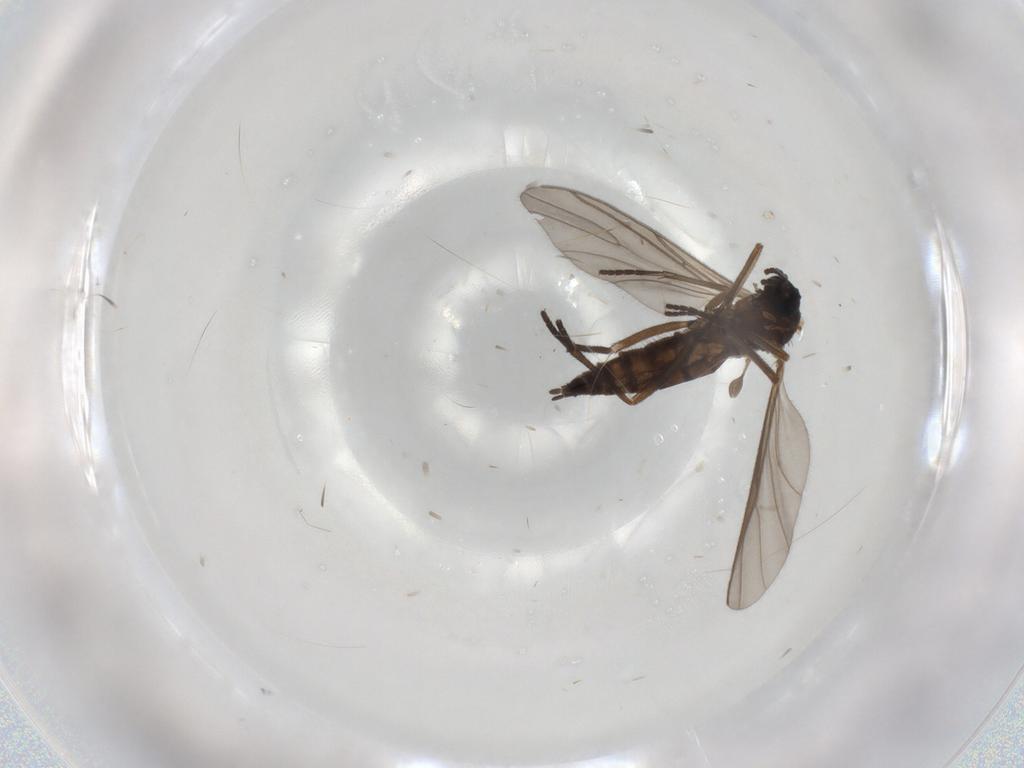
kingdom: Animalia
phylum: Arthropoda
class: Insecta
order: Diptera
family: Sciaridae
